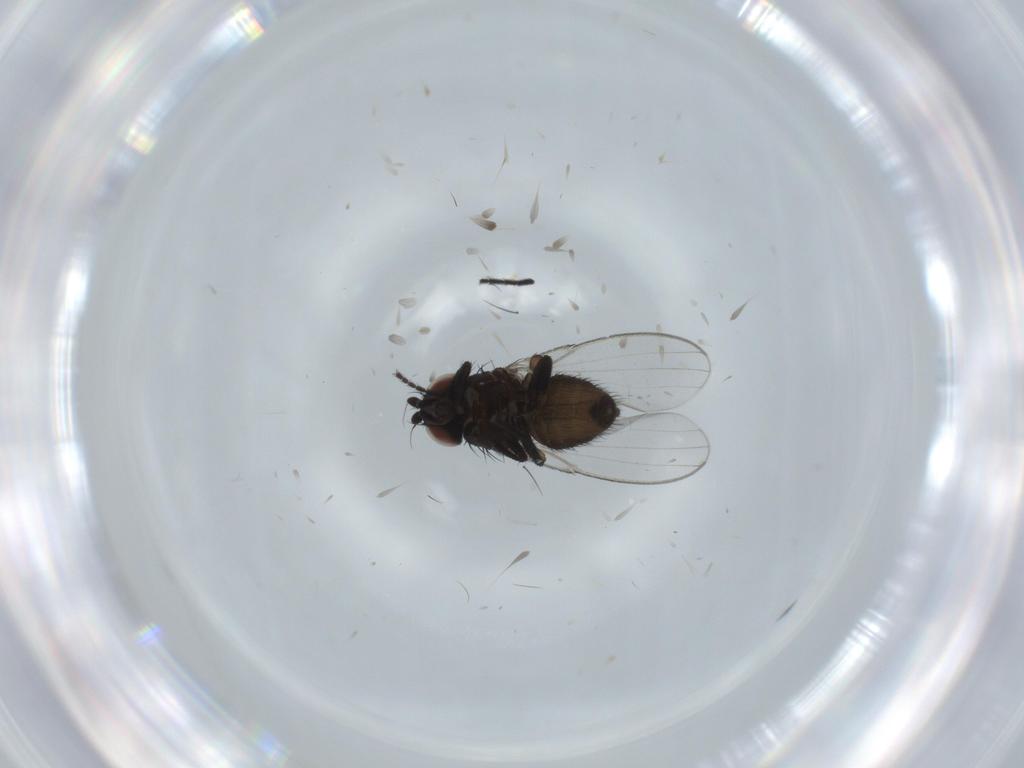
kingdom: Animalia
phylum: Arthropoda
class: Insecta
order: Diptera
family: Milichiidae
